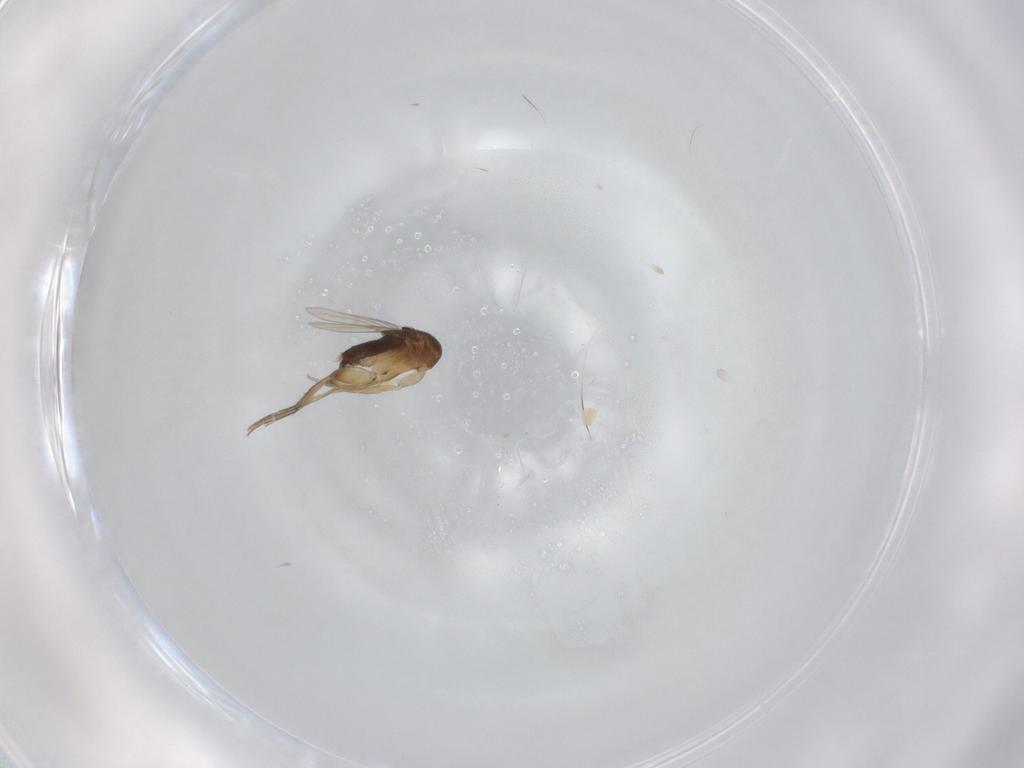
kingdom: Animalia
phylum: Arthropoda
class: Insecta
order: Diptera
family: Phoridae
